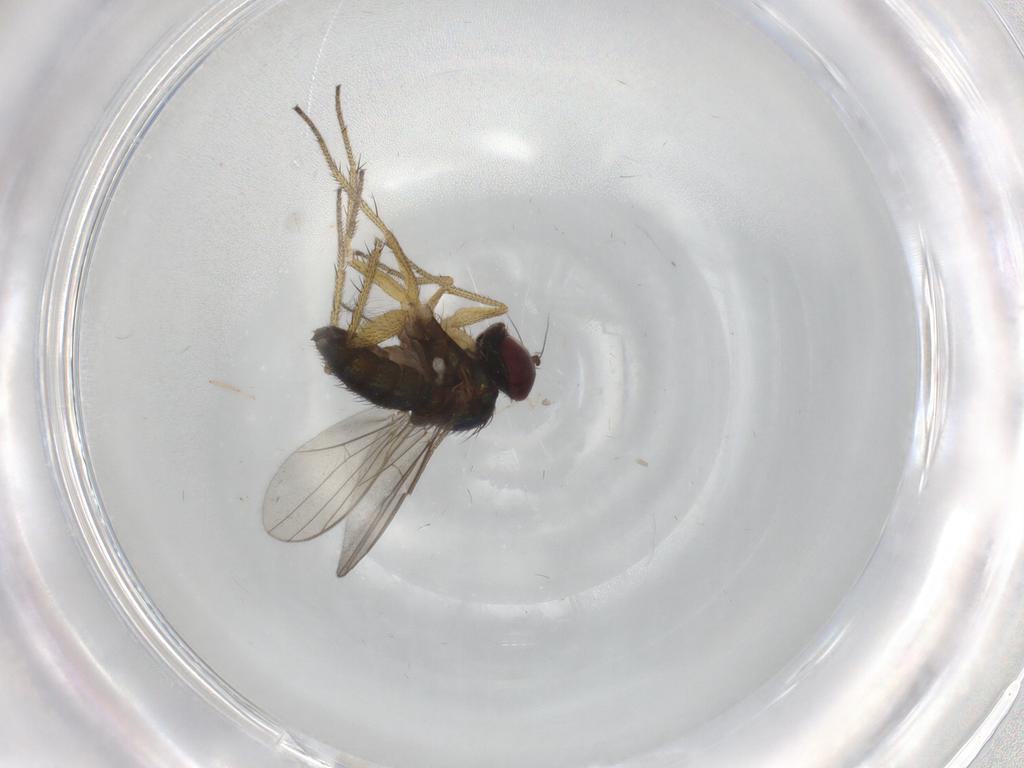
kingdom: Animalia
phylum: Arthropoda
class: Insecta
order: Diptera
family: Dolichopodidae
